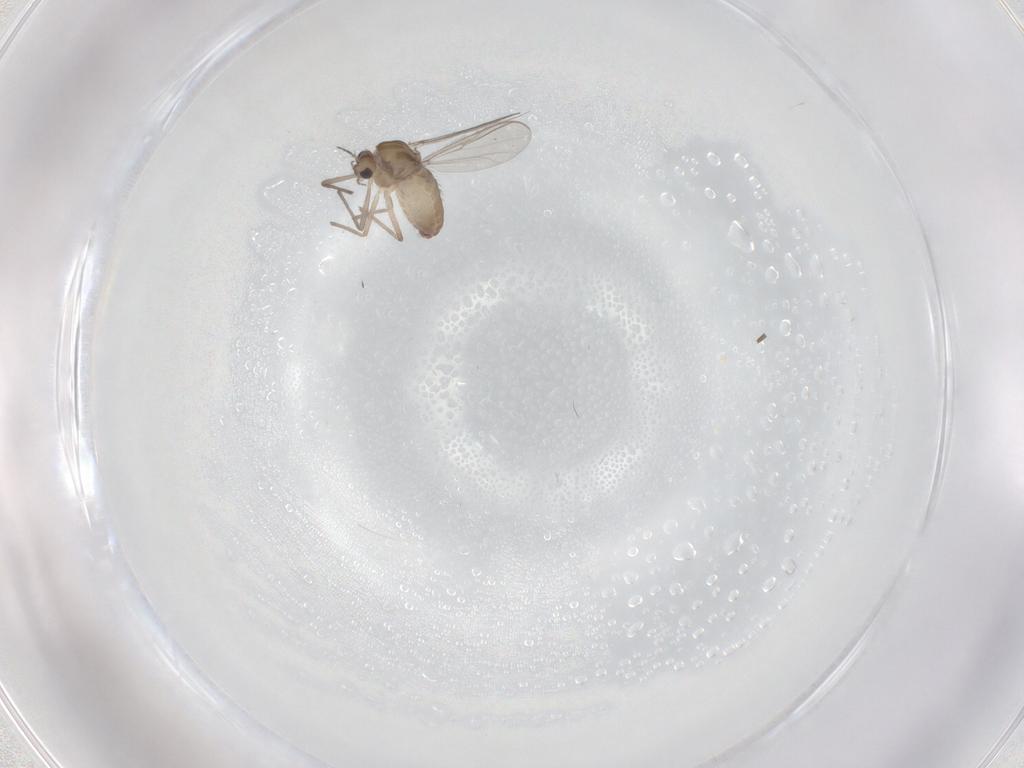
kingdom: Animalia
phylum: Arthropoda
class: Insecta
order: Diptera
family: Chironomidae
